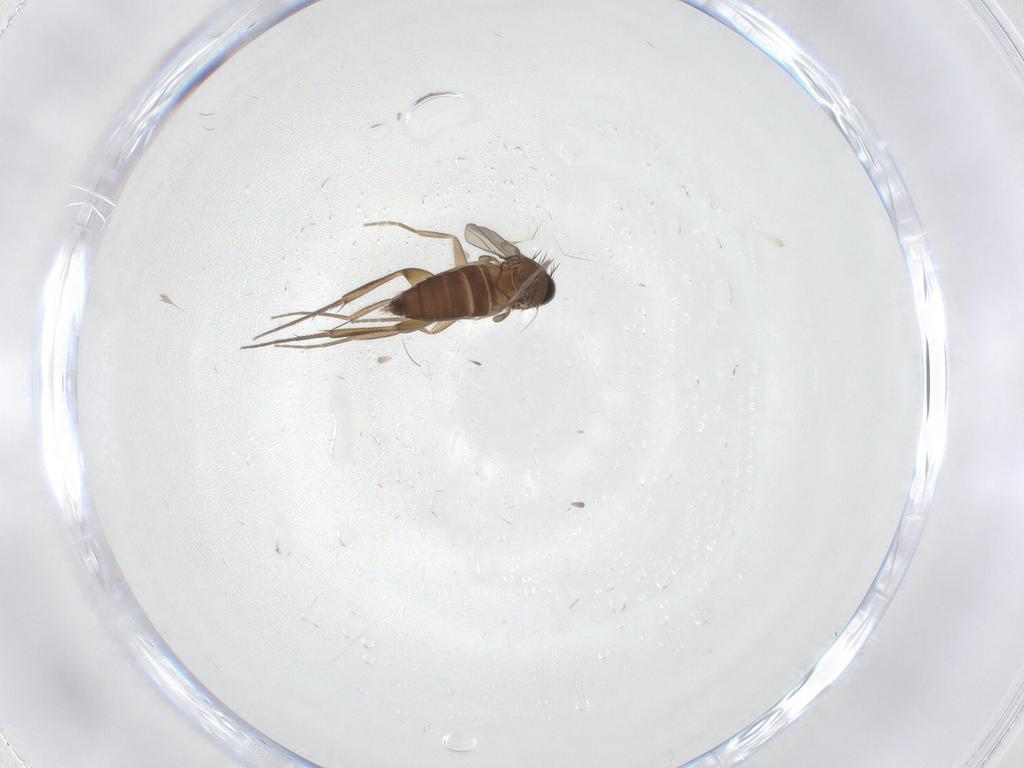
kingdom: Animalia
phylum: Arthropoda
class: Insecta
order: Diptera
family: Phoridae
